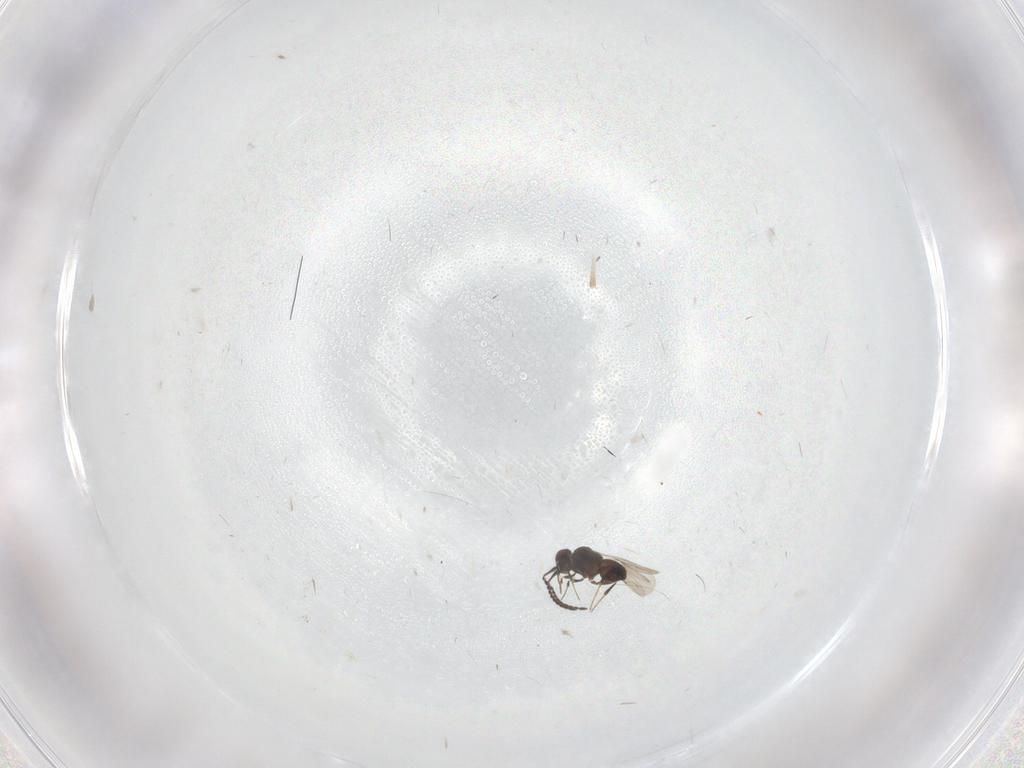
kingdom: Animalia
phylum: Arthropoda
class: Insecta
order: Hymenoptera
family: Mymaridae
